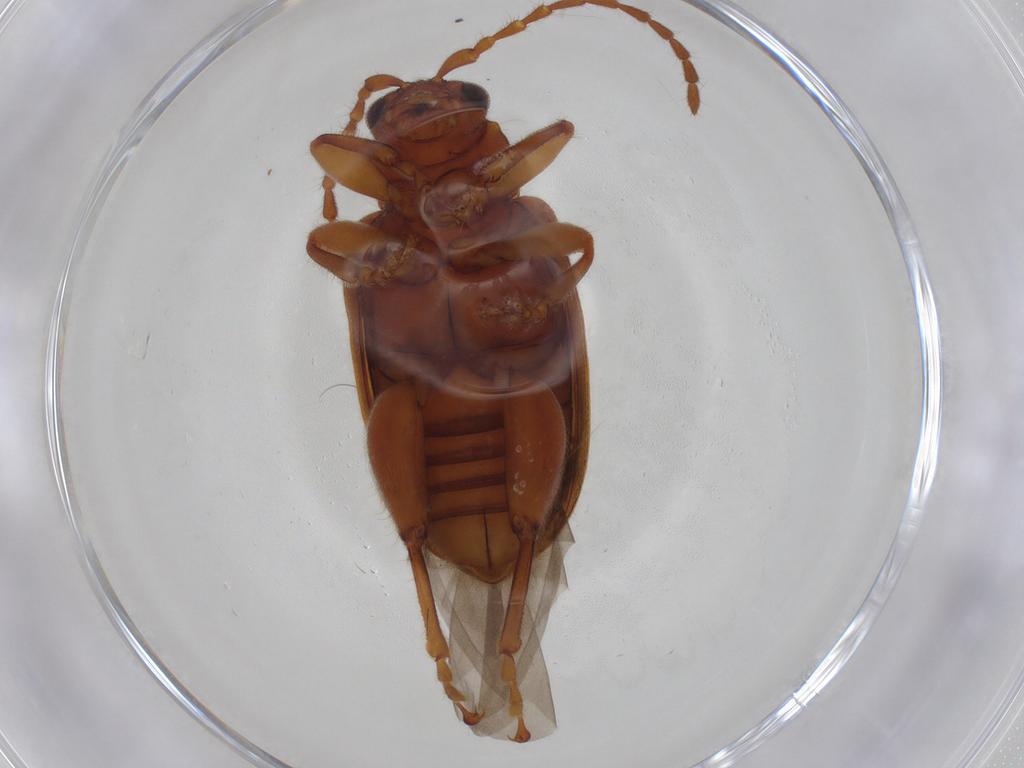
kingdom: Animalia
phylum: Arthropoda
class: Insecta
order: Coleoptera
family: Chrysomelidae
